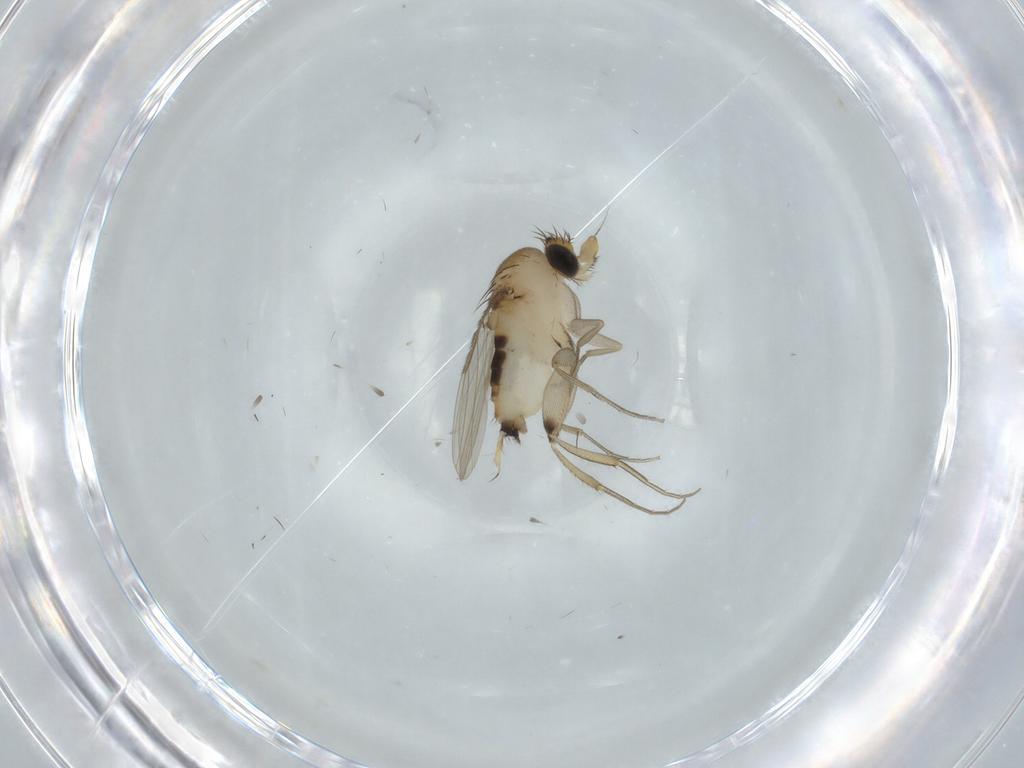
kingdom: Animalia
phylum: Arthropoda
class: Insecta
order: Diptera
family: Phoridae
